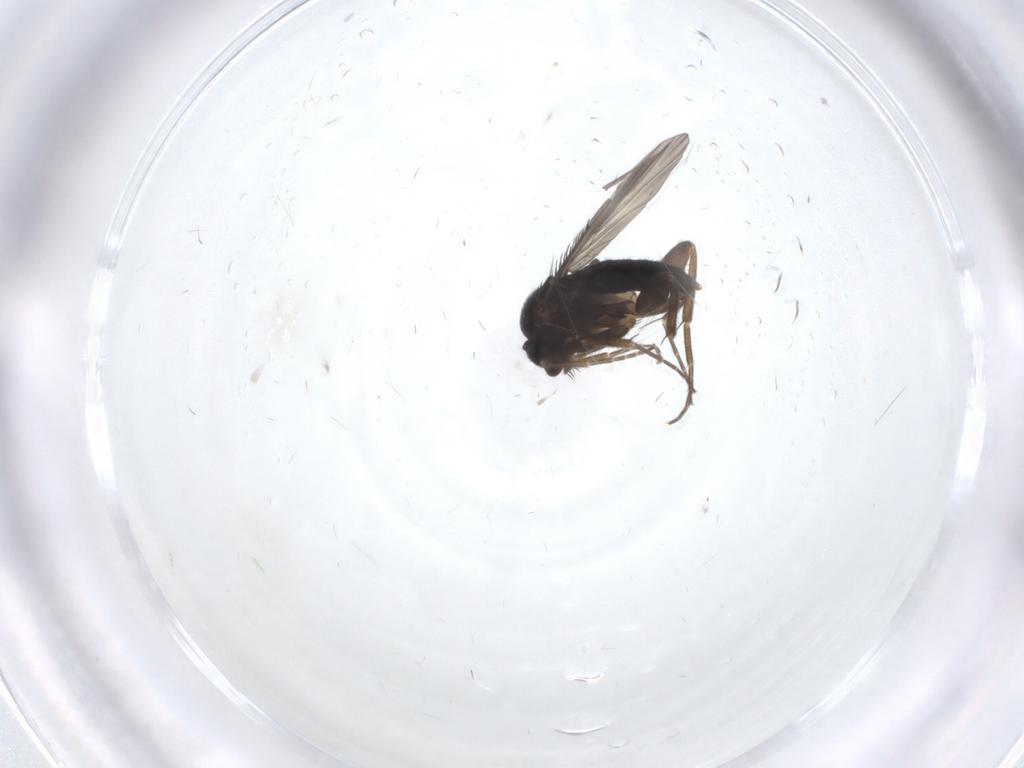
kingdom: Animalia
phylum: Arthropoda
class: Insecta
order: Diptera
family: Phoridae
